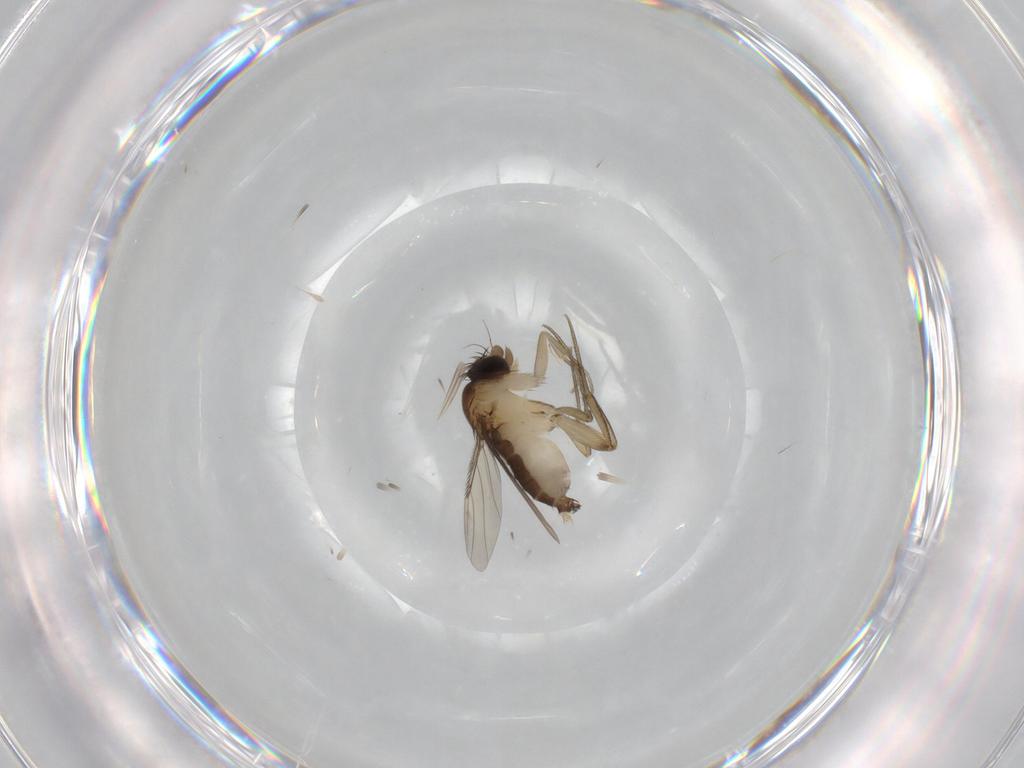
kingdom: Animalia
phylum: Arthropoda
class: Insecta
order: Diptera
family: Phoridae
